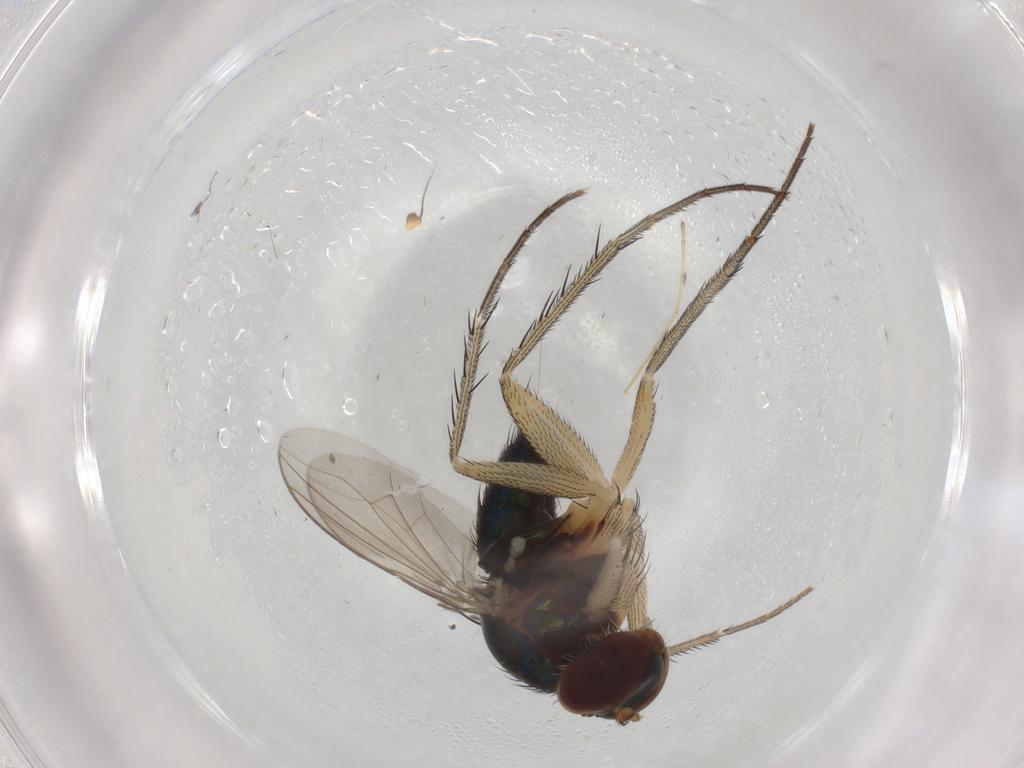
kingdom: Animalia
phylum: Arthropoda
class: Insecta
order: Diptera
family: Dolichopodidae
